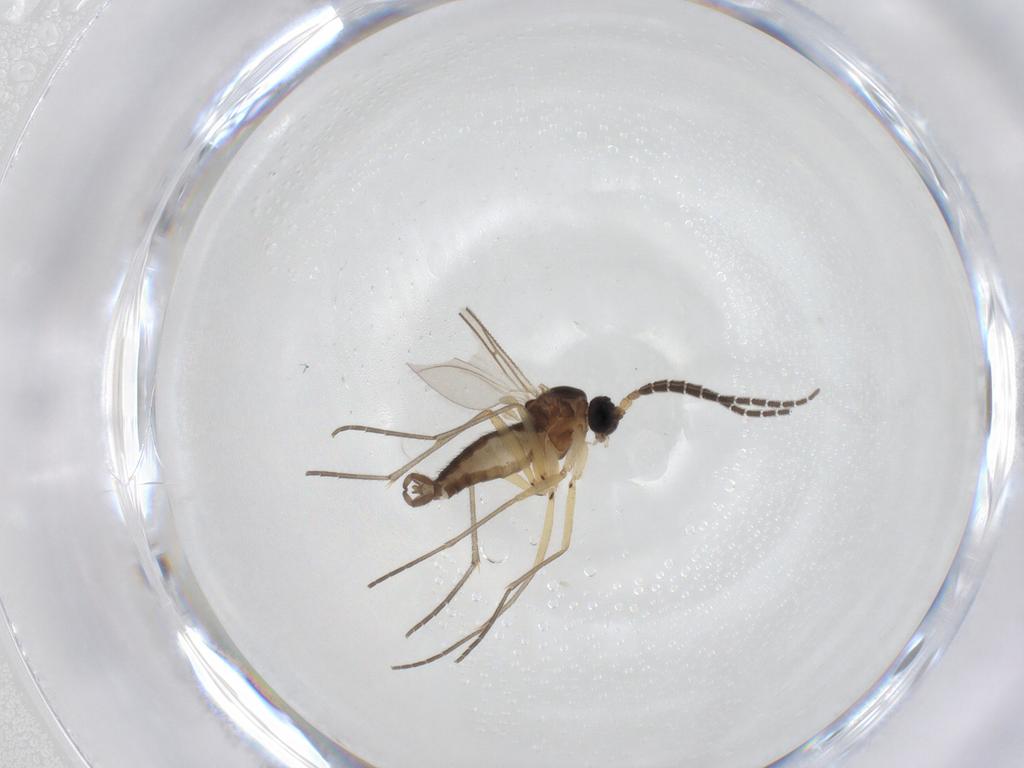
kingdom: Animalia
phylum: Arthropoda
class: Insecta
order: Diptera
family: Sciaridae
